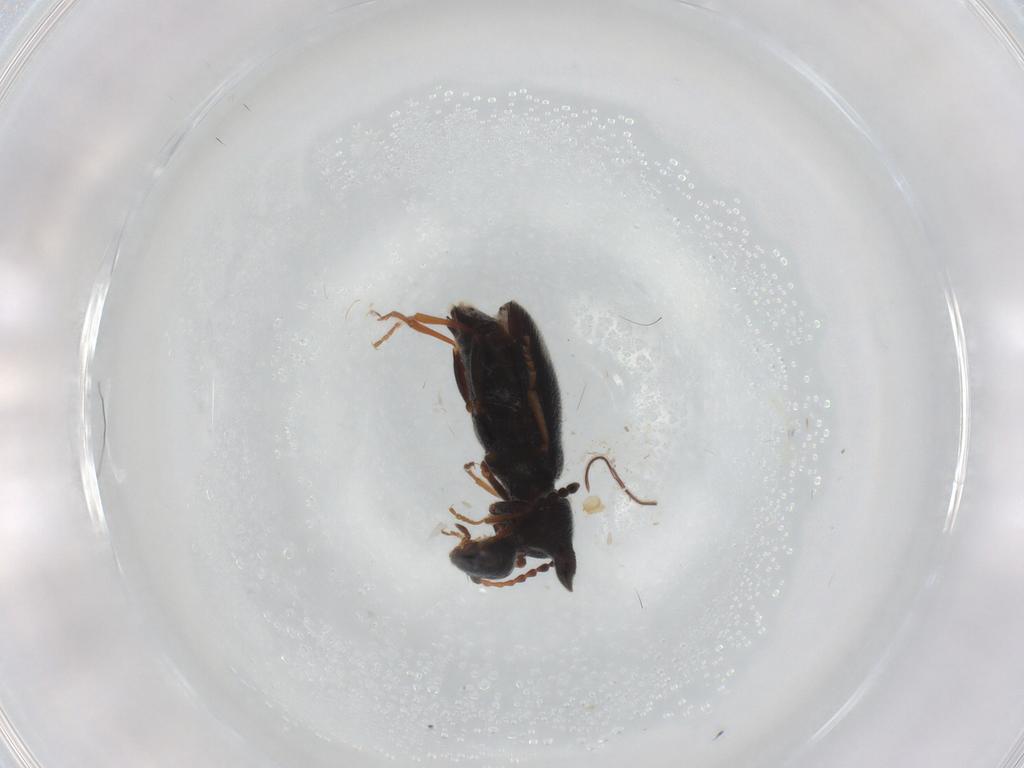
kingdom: Animalia
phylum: Arthropoda
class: Insecta
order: Coleoptera
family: Anthicidae
